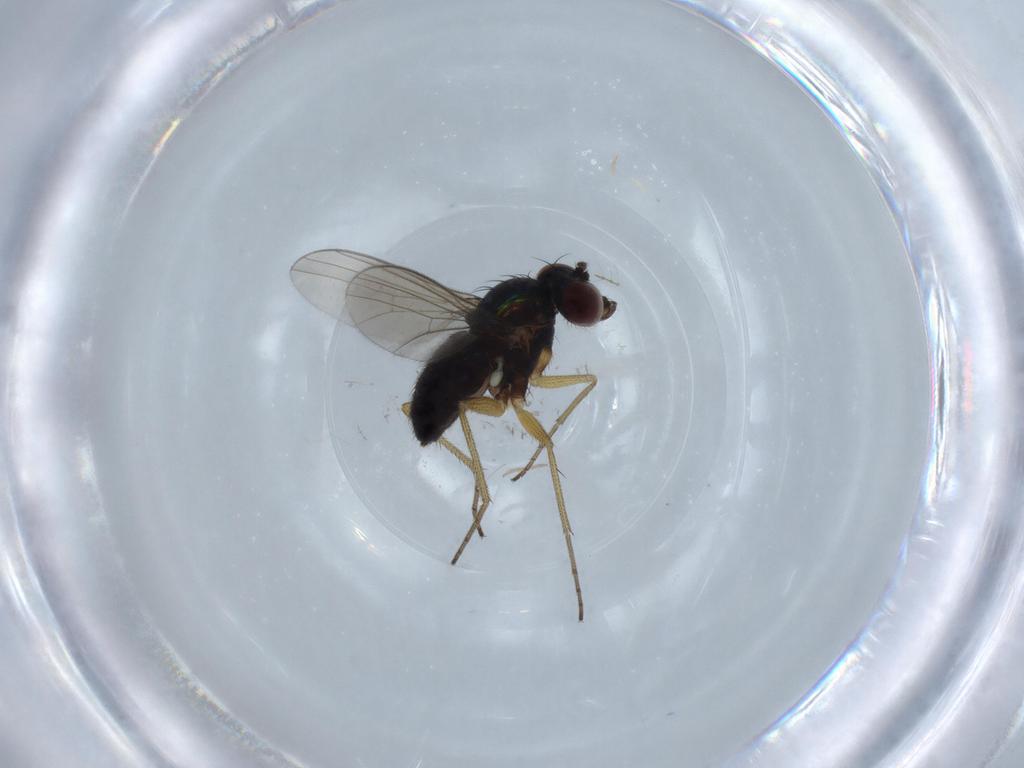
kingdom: Animalia
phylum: Arthropoda
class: Insecta
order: Diptera
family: Dolichopodidae
